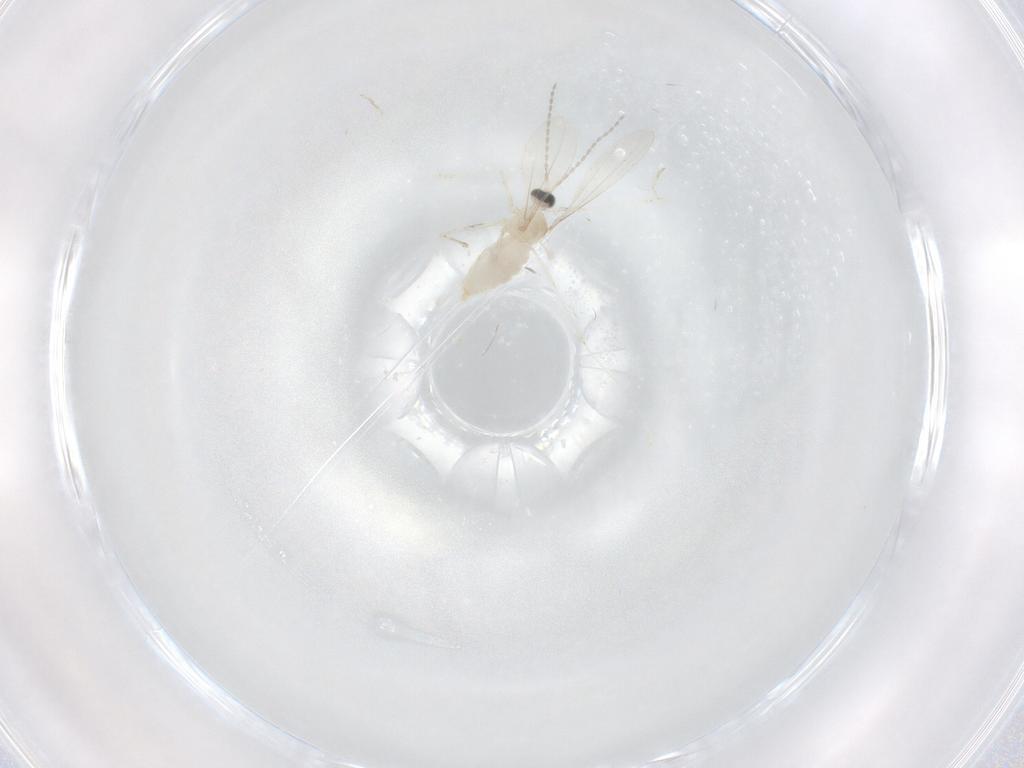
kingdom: Animalia
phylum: Arthropoda
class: Insecta
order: Diptera
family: Cecidomyiidae
